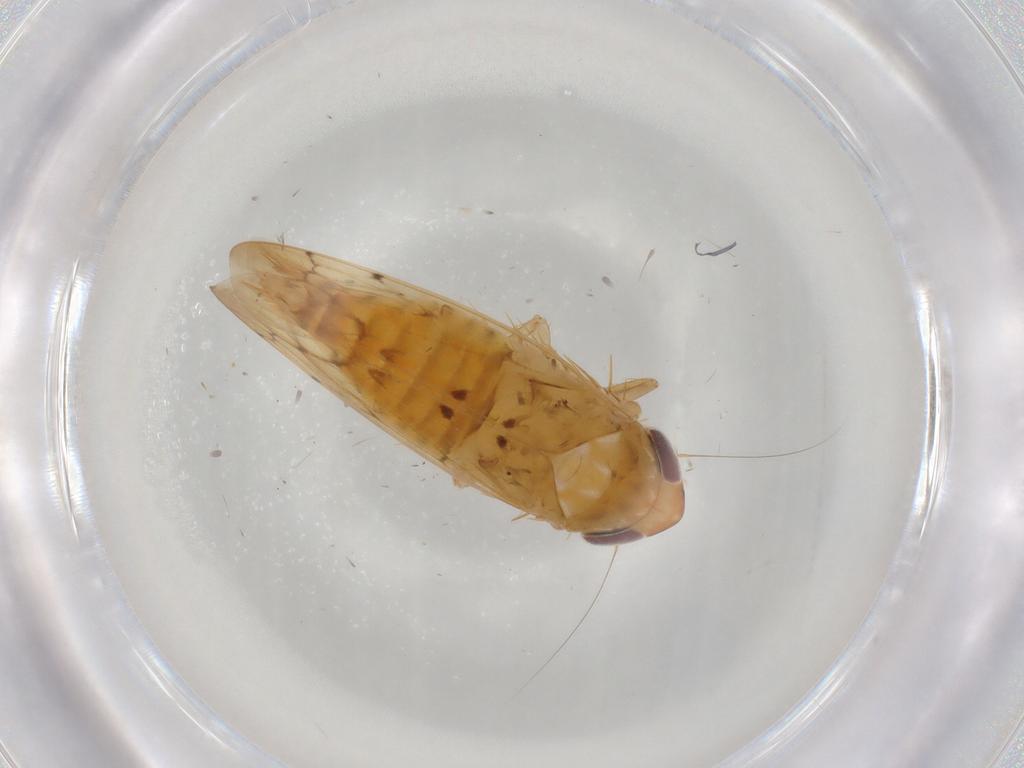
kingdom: Animalia
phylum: Arthropoda
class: Insecta
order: Hemiptera
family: Cicadellidae
